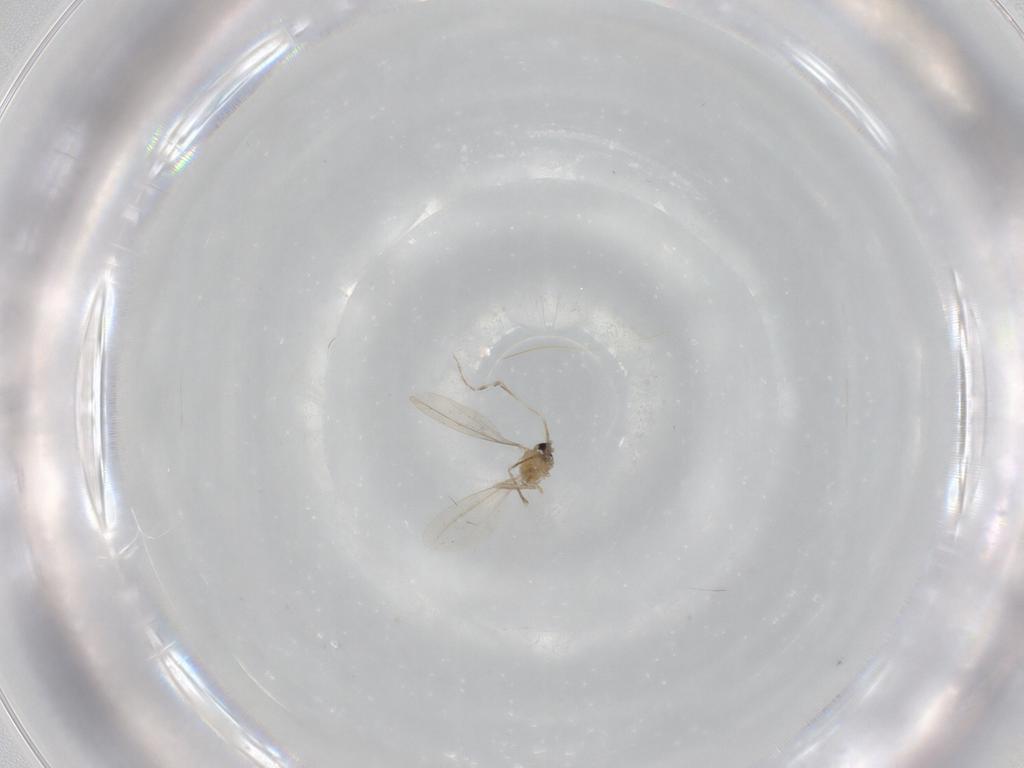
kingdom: Animalia
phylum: Arthropoda
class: Insecta
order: Diptera
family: Cecidomyiidae
